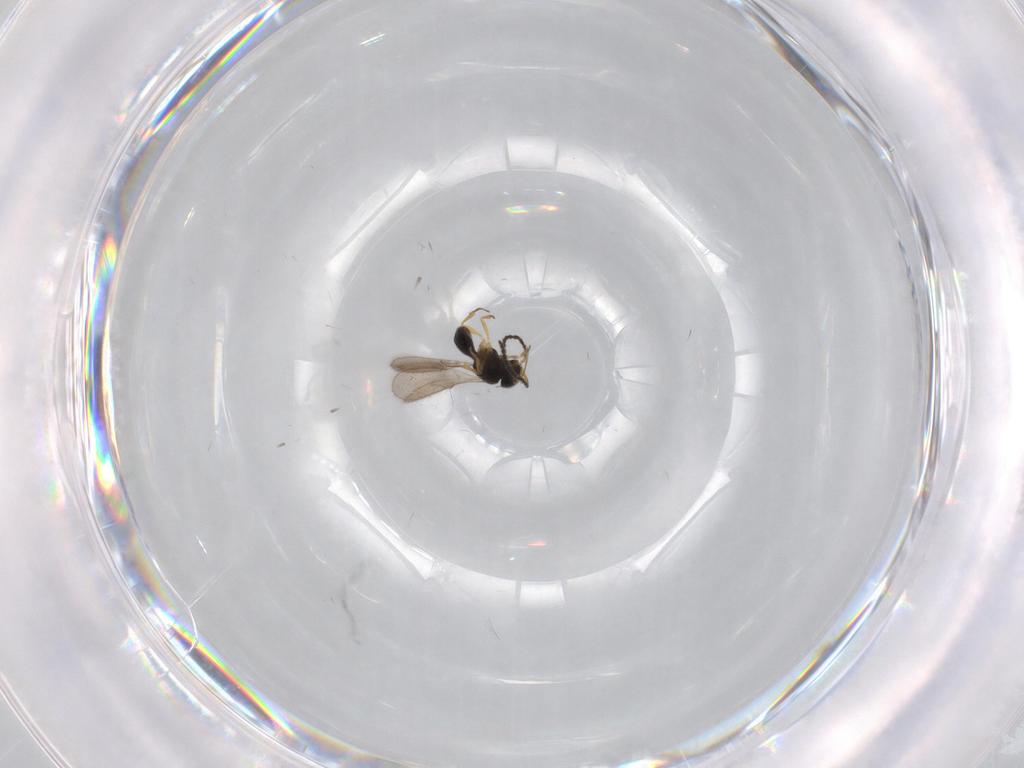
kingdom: Animalia
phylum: Arthropoda
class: Insecta
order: Hymenoptera
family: Scelionidae
